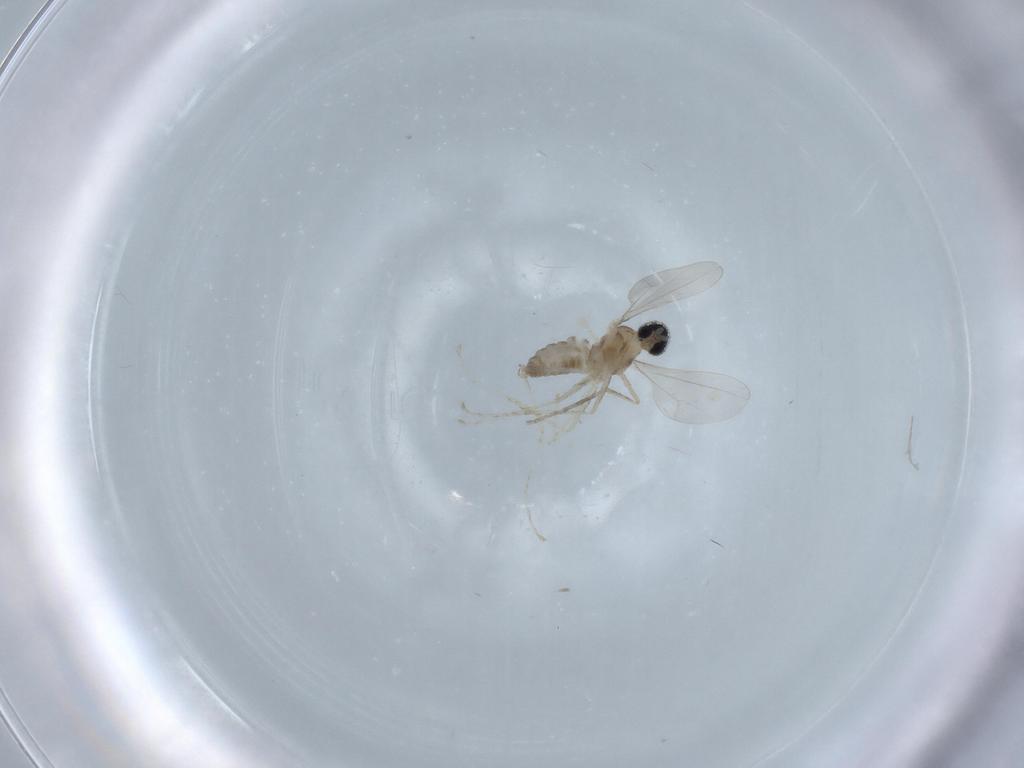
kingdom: Animalia
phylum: Arthropoda
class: Insecta
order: Diptera
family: Cecidomyiidae
